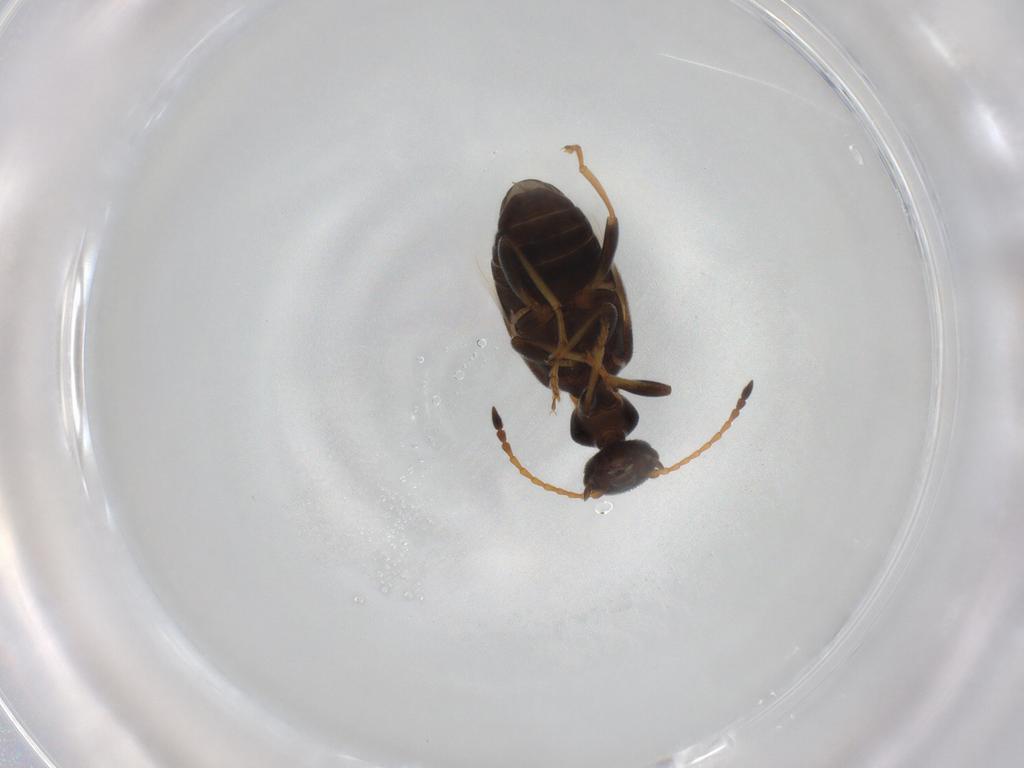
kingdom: Animalia
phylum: Arthropoda
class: Insecta
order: Coleoptera
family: Anthicidae
